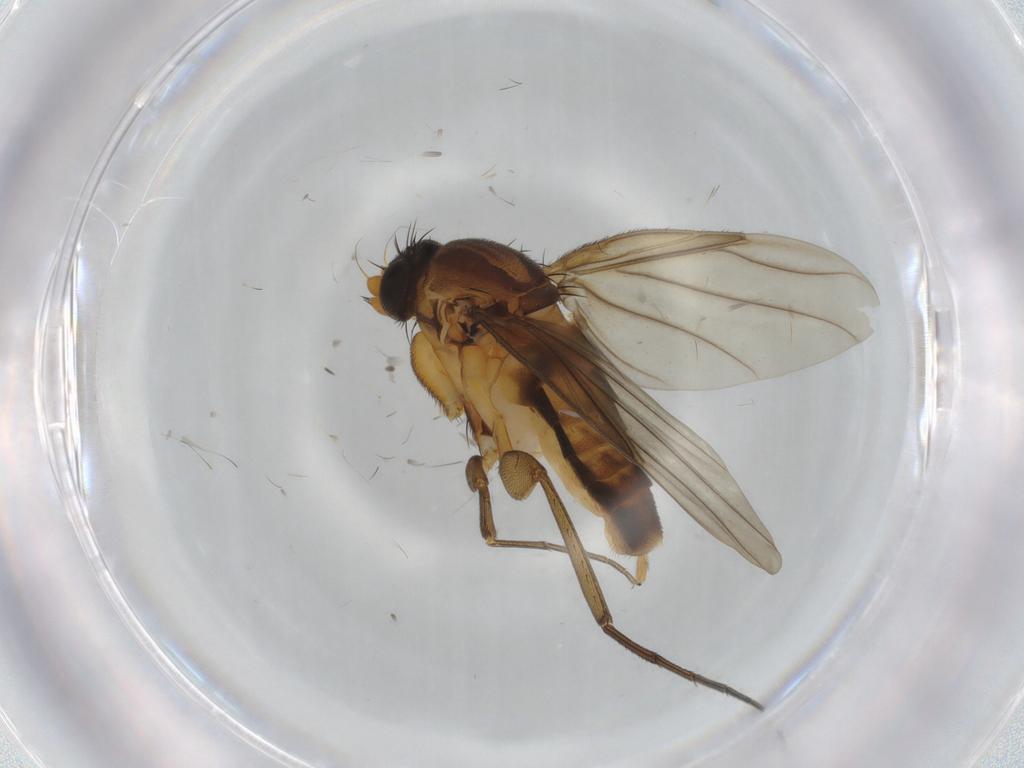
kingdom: Animalia
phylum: Arthropoda
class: Insecta
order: Diptera
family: Phoridae
